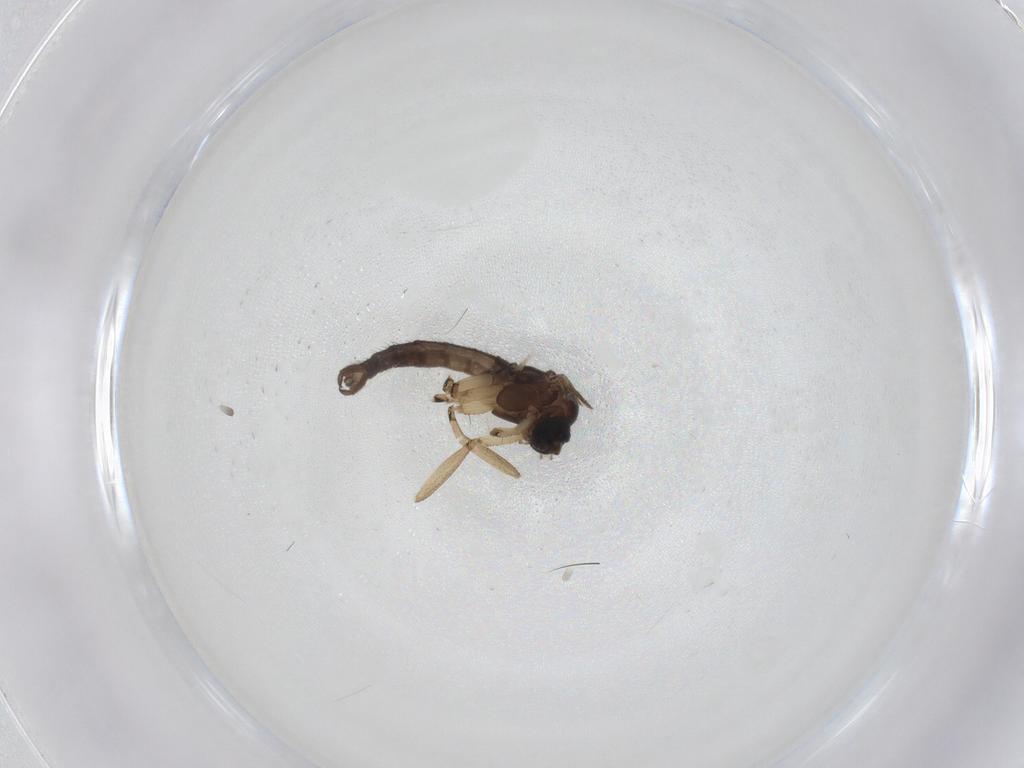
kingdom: Animalia
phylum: Arthropoda
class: Insecta
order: Diptera
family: Sciaridae
